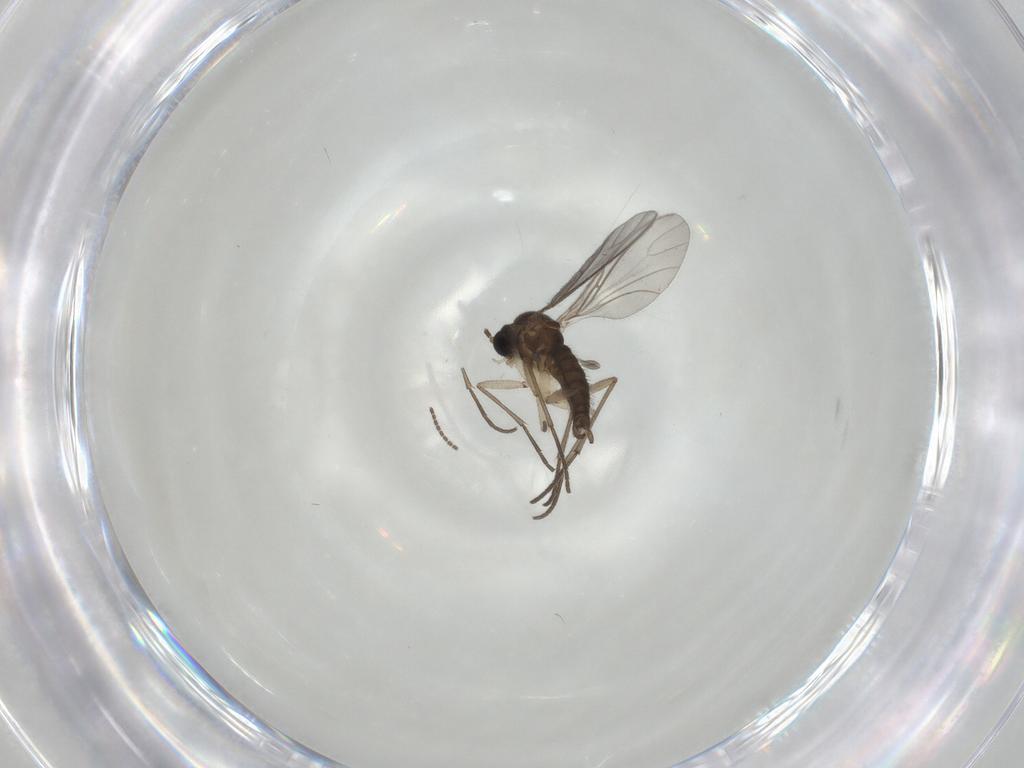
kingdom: Animalia
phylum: Arthropoda
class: Insecta
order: Diptera
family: Sciaridae
